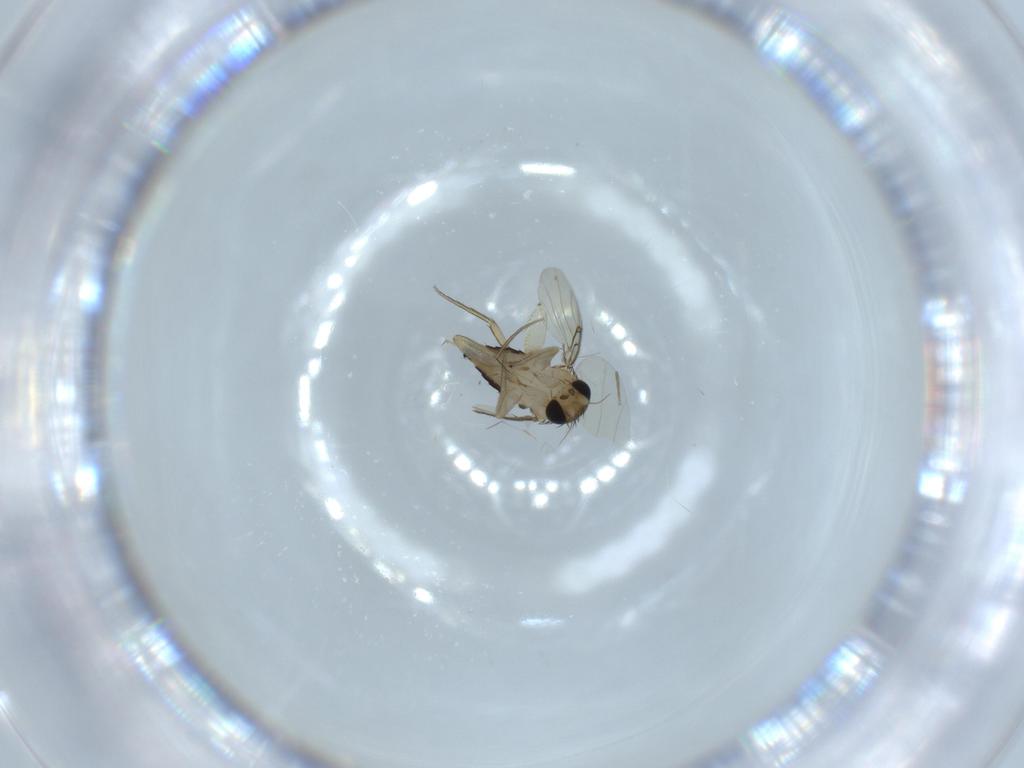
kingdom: Animalia
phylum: Arthropoda
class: Insecta
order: Diptera
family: Phoridae
